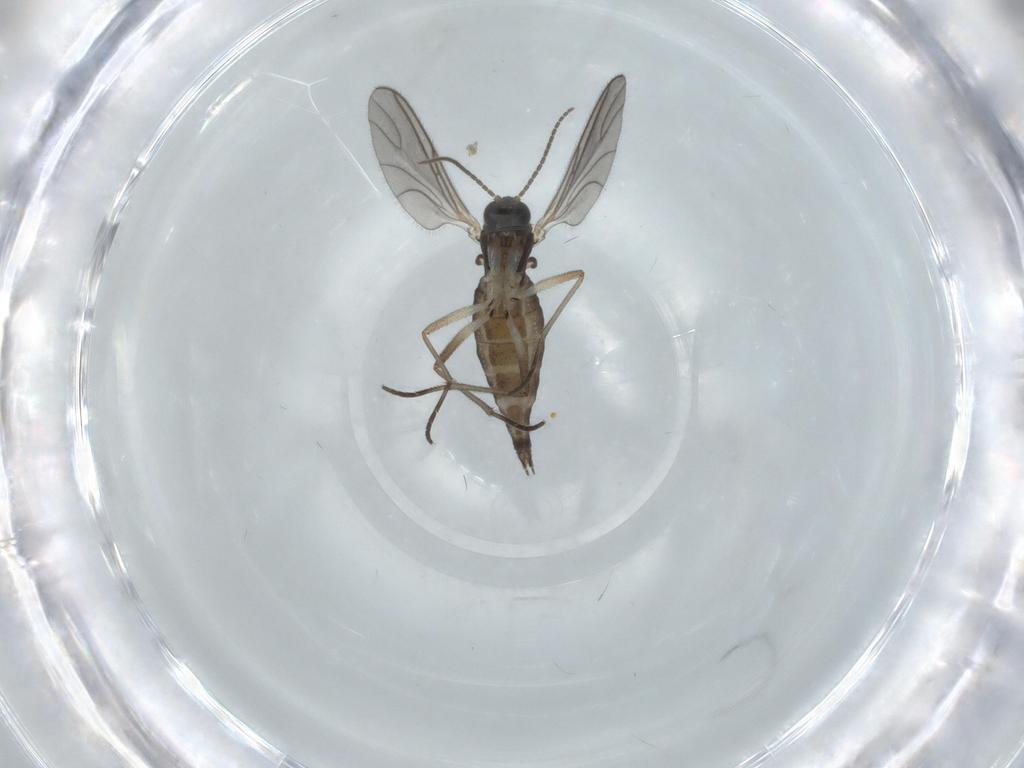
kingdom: Animalia
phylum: Arthropoda
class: Insecta
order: Diptera
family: Sciaridae
